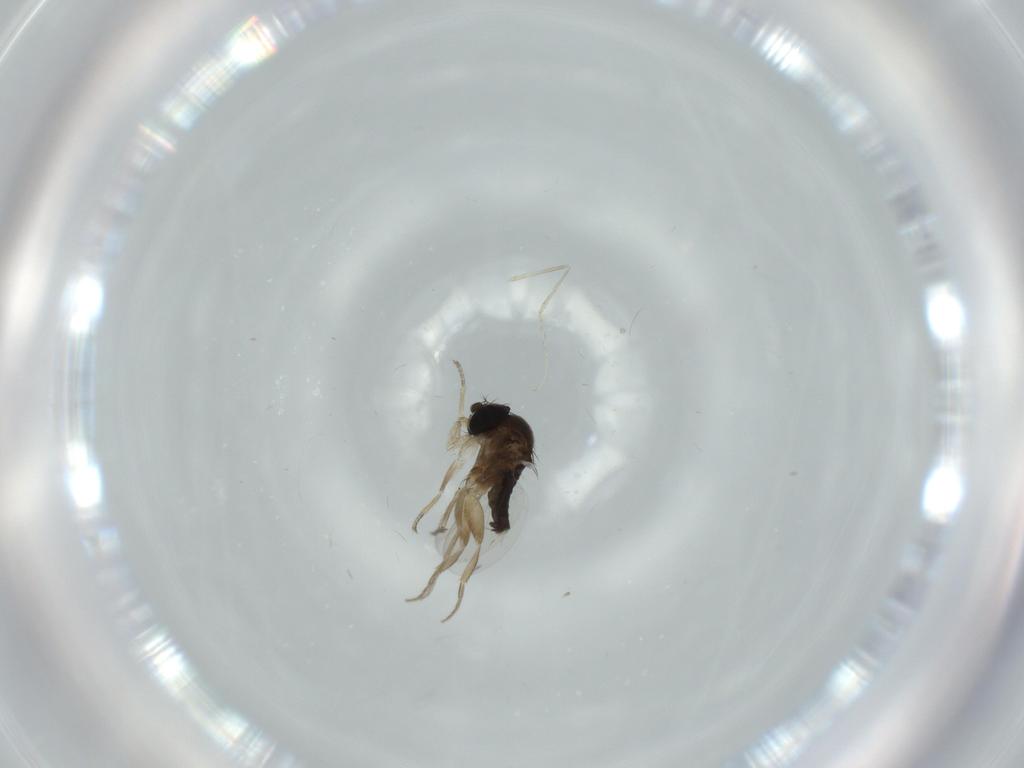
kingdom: Animalia
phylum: Arthropoda
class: Insecta
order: Diptera
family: Phoridae
